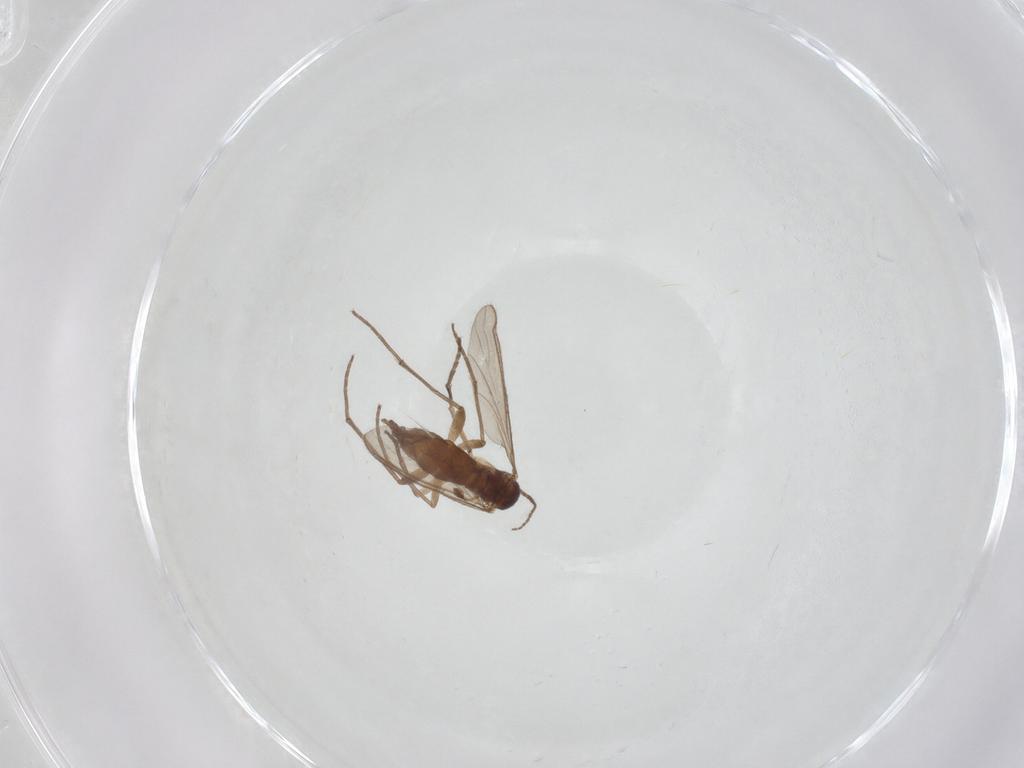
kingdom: Animalia
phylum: Arthropoda
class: Insecta
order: Diptera
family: Sciaridae
